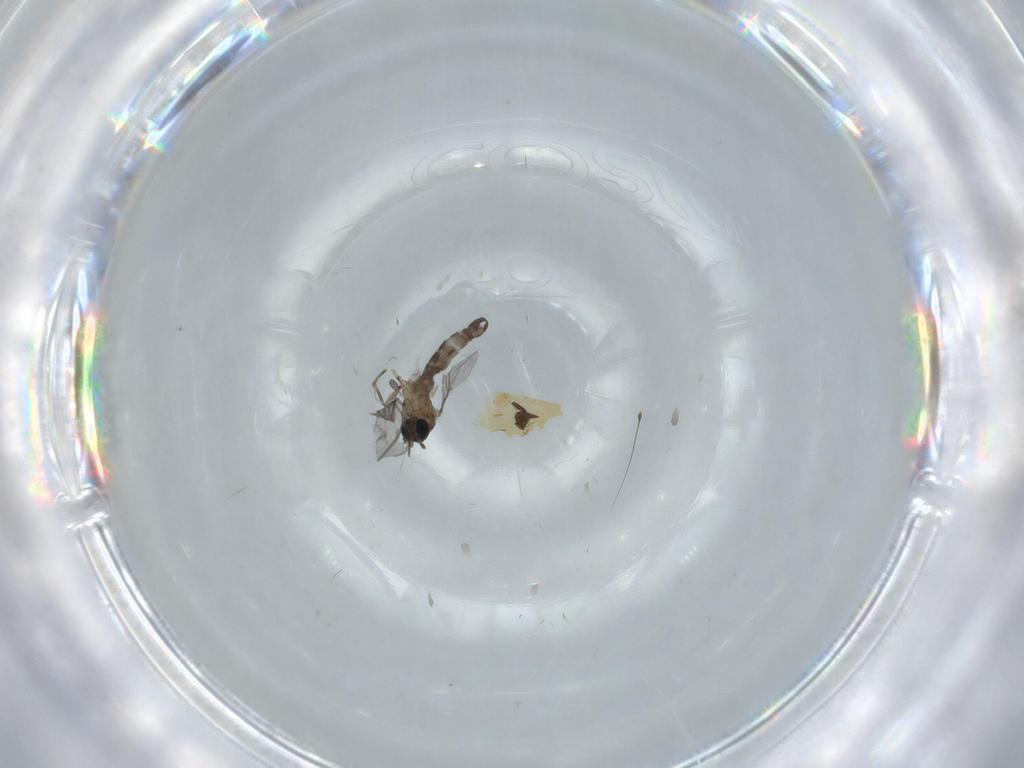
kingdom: Animalia
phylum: Arthropoda
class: Insecta
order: Diptera
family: Sciaridae
